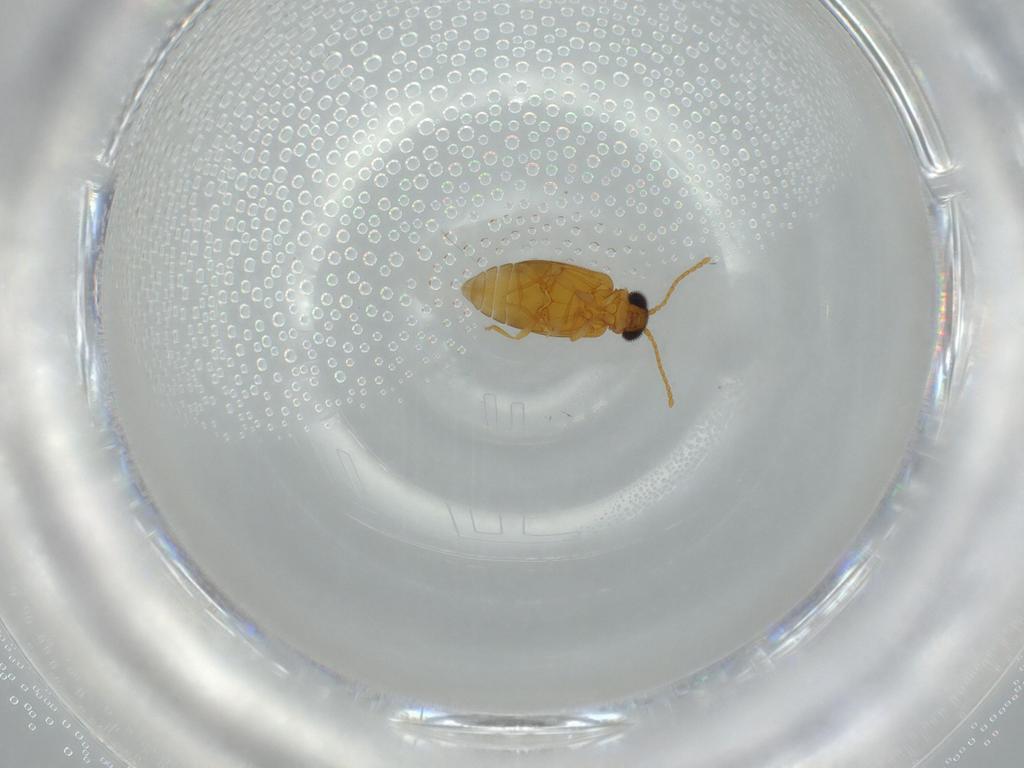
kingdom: Animalia
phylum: Arthropoda
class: Insecta
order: Coleoptera
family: Aderidae
